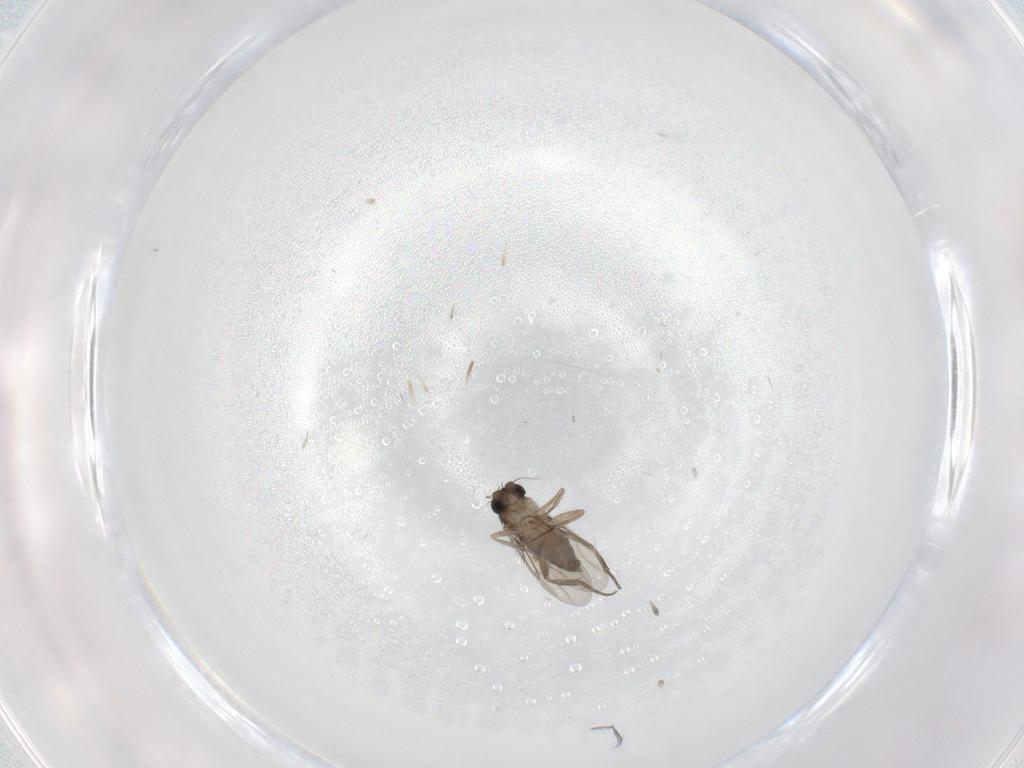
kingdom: Animalia
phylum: Arthropoda
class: Insecta
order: Diptera
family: Phoridae
